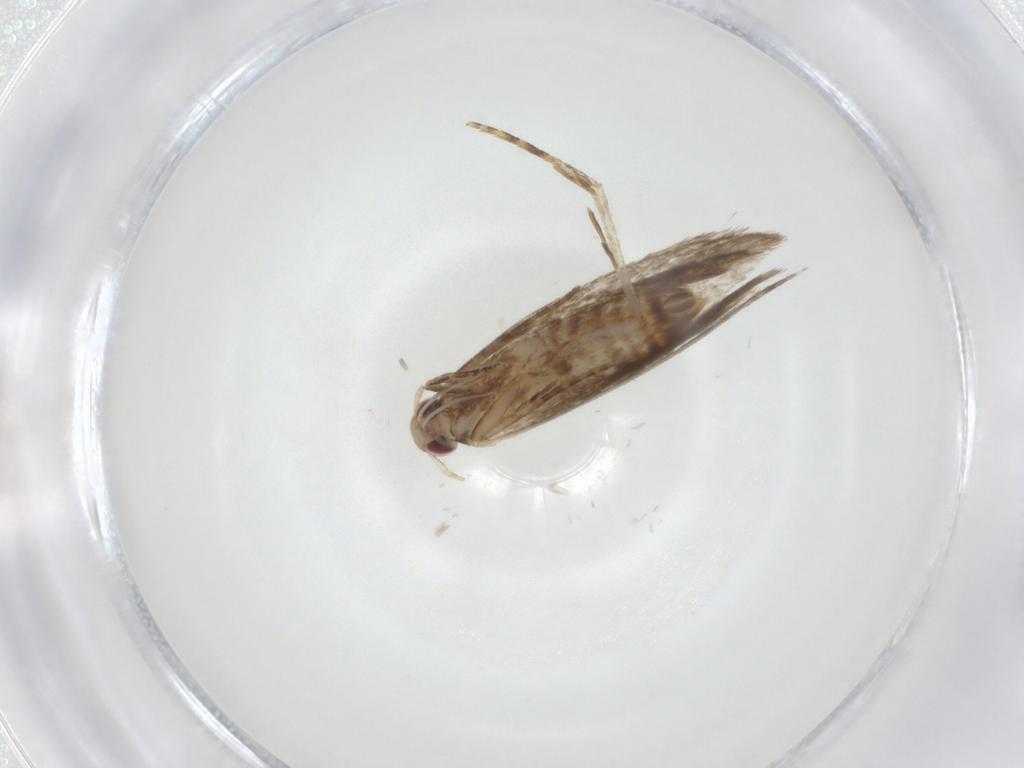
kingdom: Animalia
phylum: Arthropoda
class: Insecta
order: Lepidoptera
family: Gelechiidae
